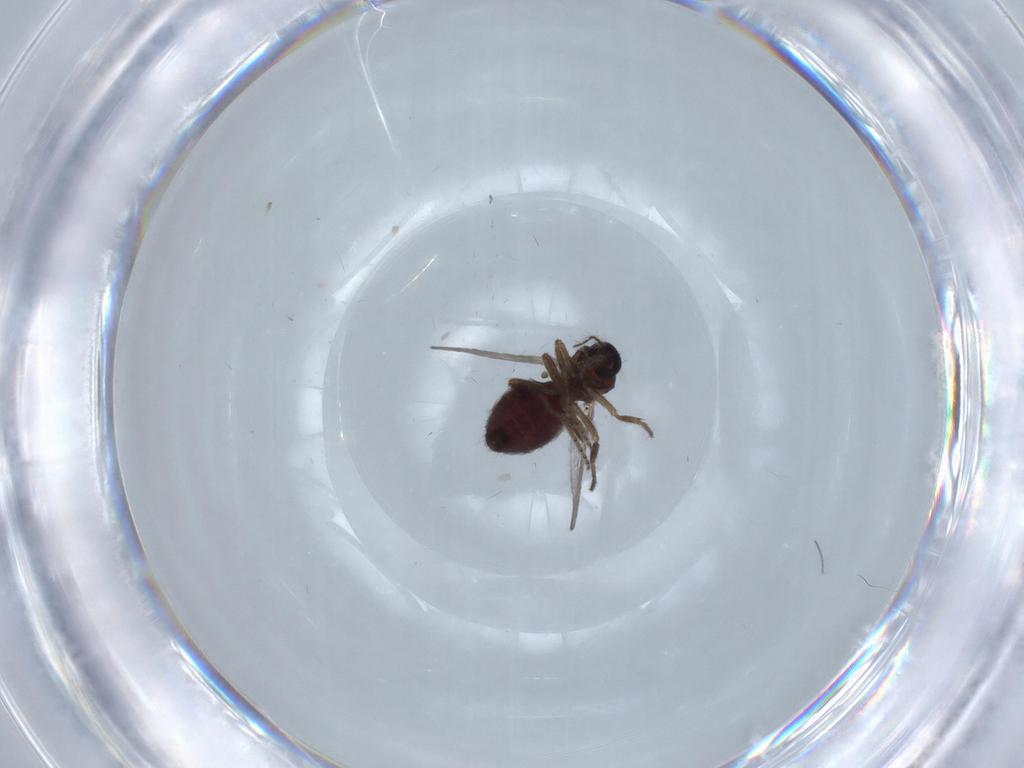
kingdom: Animalia
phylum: Arthropoda
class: Insecta
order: Diptera
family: Ceratopogonidae
